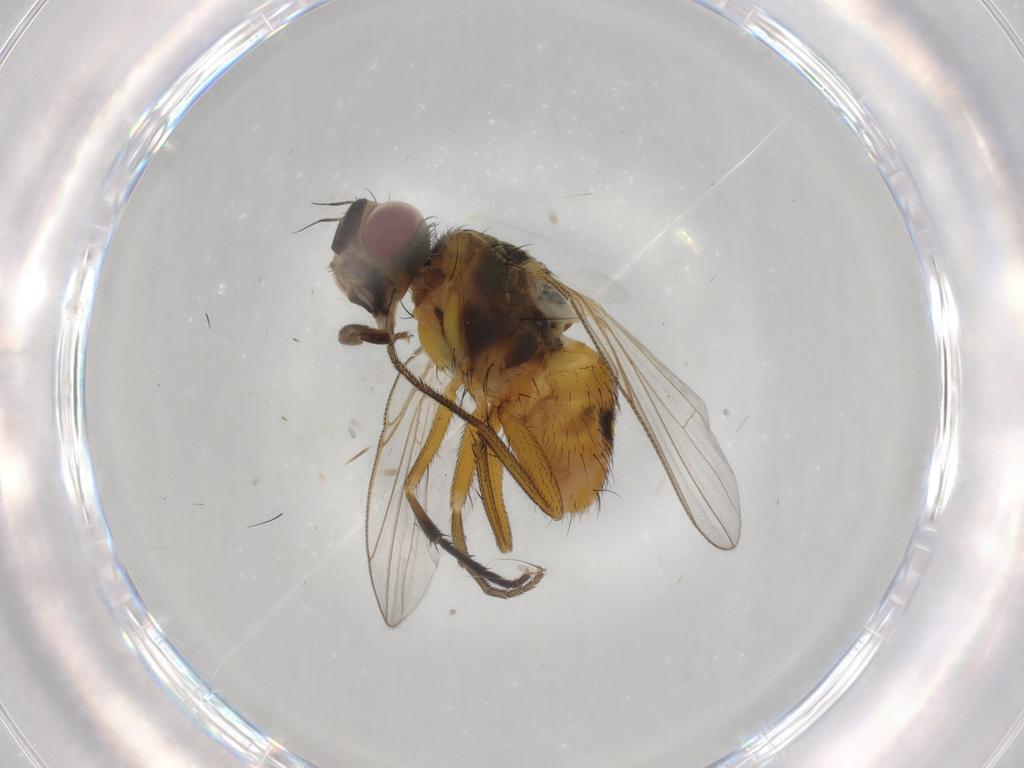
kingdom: Animalia
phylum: Arthropoda
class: Insecta
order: Diptera
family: Muscidae
